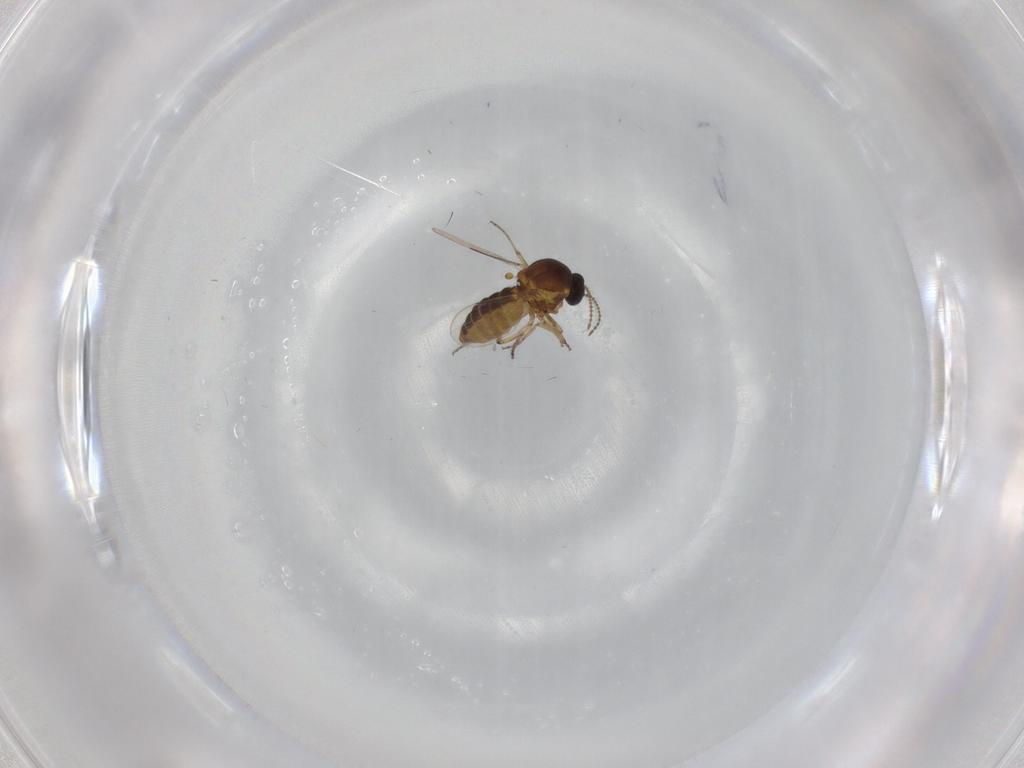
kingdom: Animalia
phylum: Arthropoda
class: Insecta
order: Diptera
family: Ceratopogonidae
